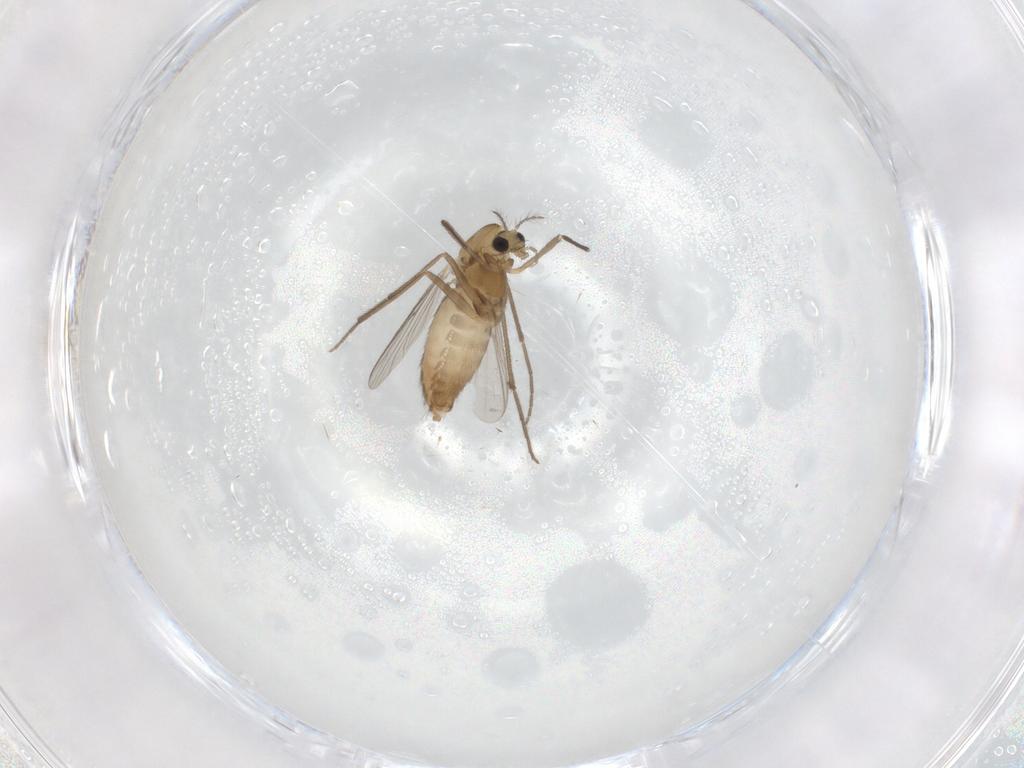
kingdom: Animalia
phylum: Arthropoda
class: Insecta
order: Diptera
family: Chironomidae
